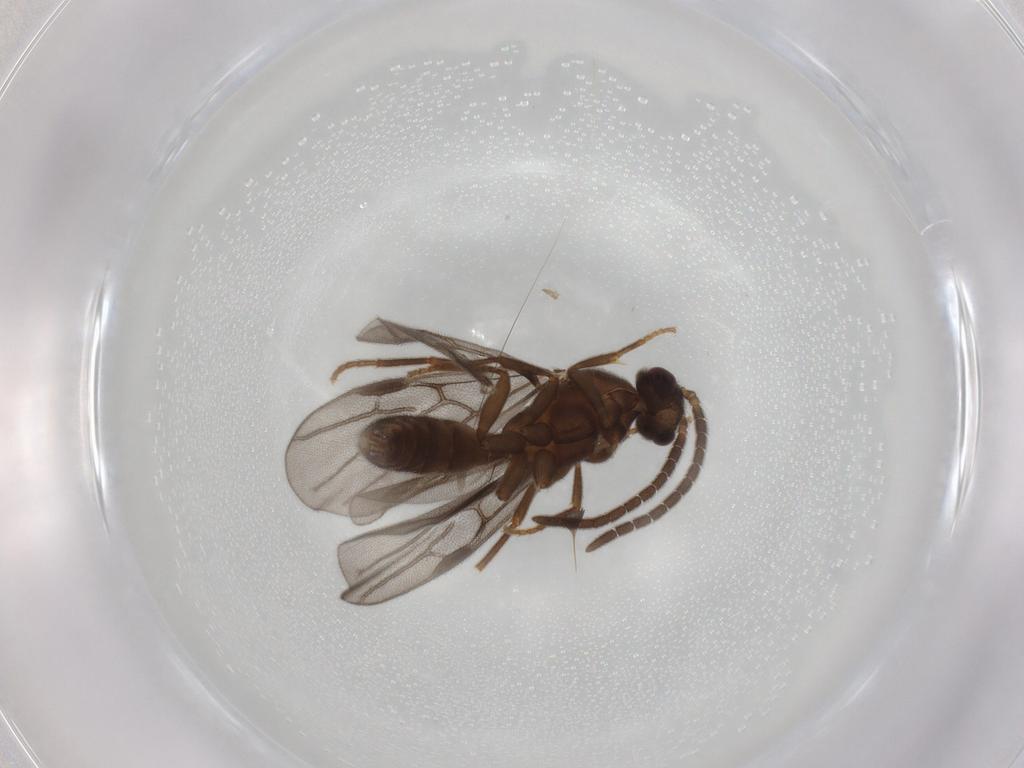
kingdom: Animalia
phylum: Arthropoda
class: Insecta
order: Hymenoptera
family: Formicidae
